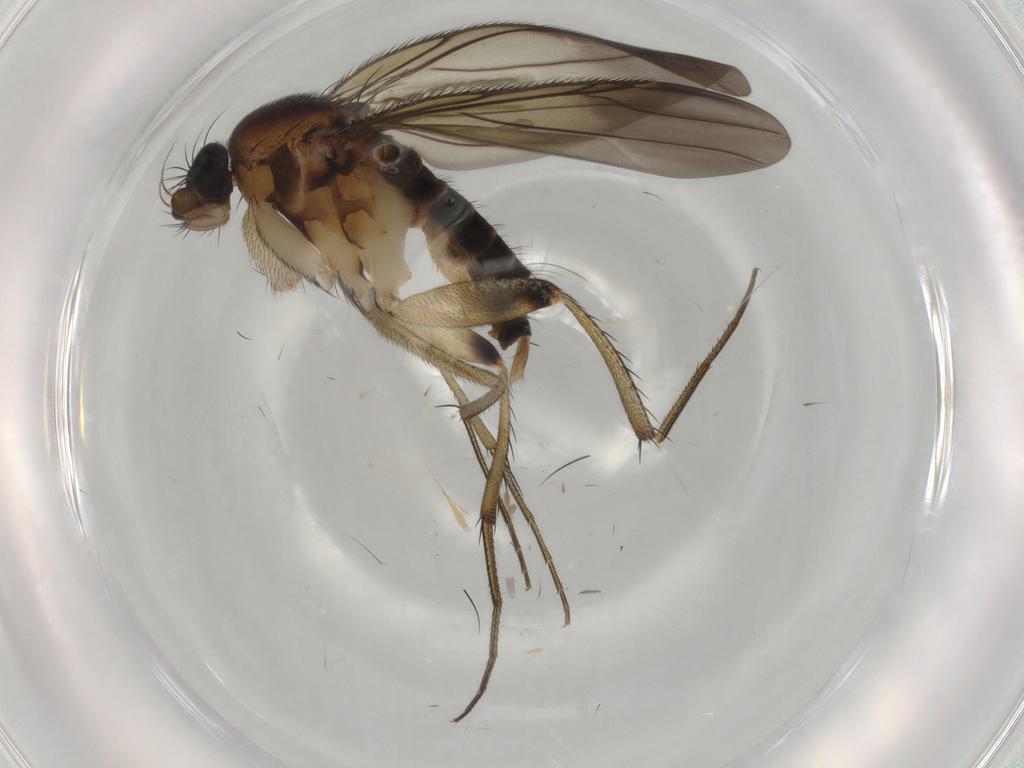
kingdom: Animalia
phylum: Arthropoda
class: Insecta
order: Diptera
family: Phoridae
